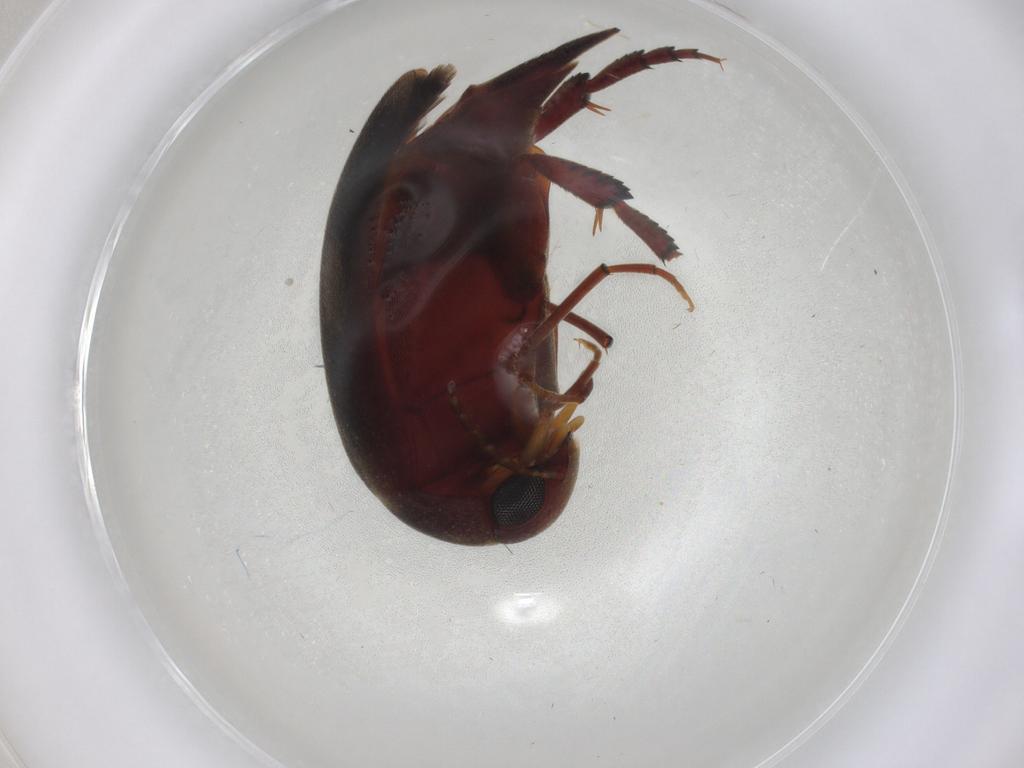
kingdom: Animalia
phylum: Arthropoda
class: Insecta
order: Coleoptera
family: Mordellidae
